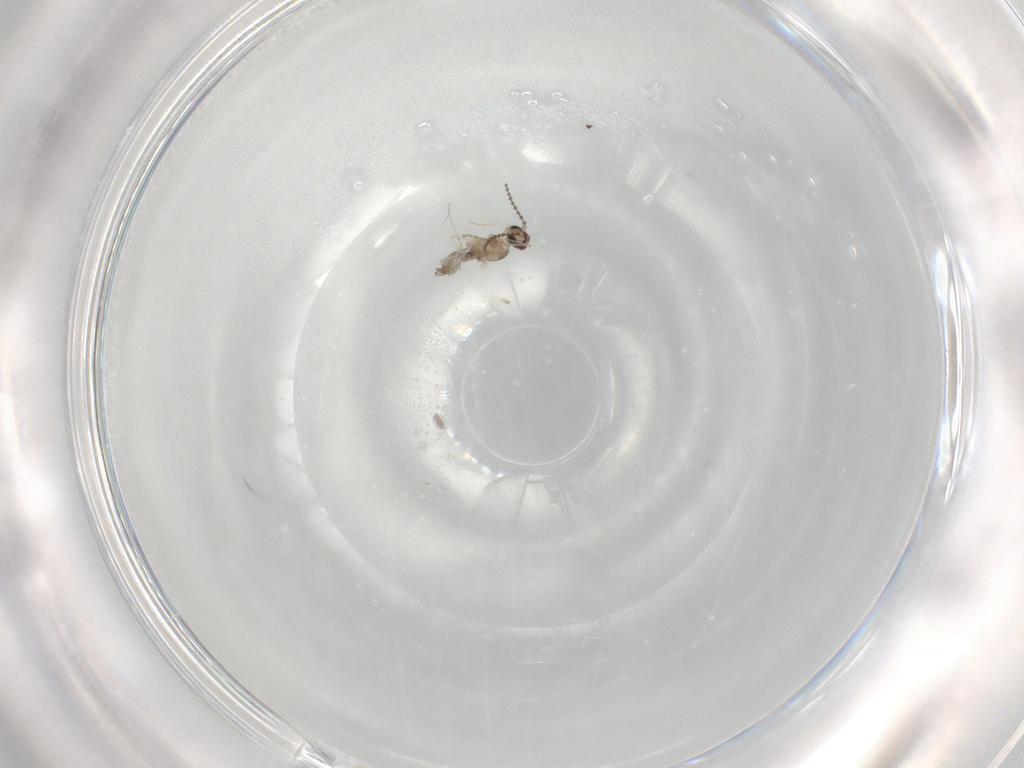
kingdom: Animalia
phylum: Arthropoda
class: Insecta
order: Diptera
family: Cecidomyiidae
